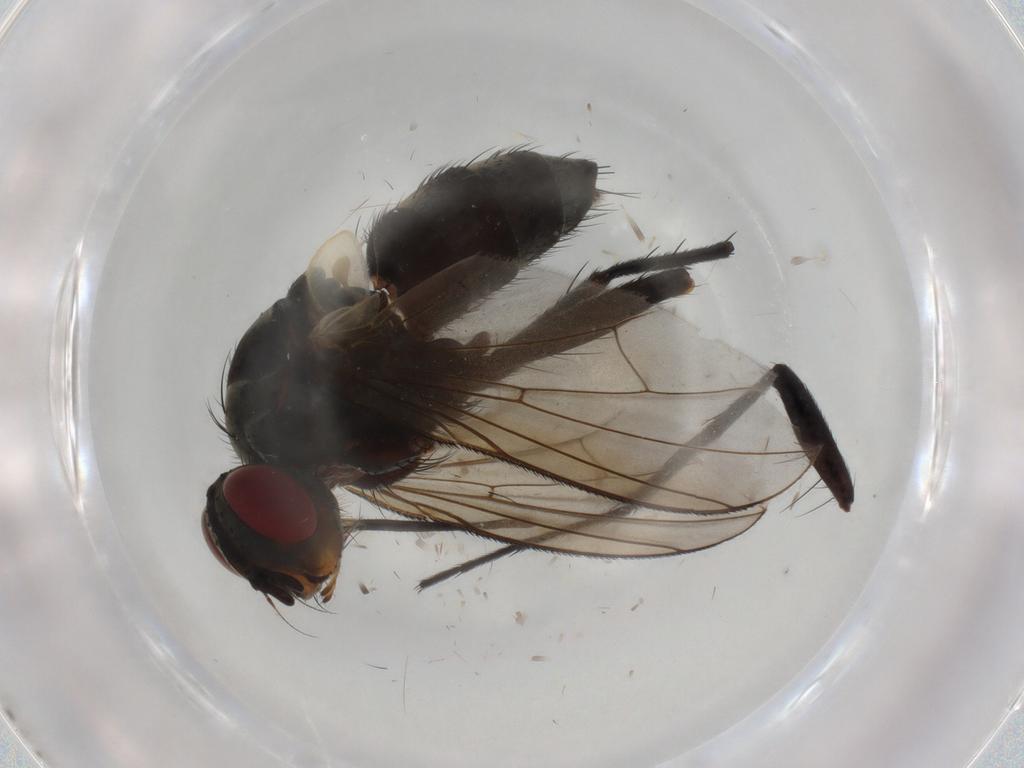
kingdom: Animalia
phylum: Arthropoda
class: Insecta
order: Diptera
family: Tachinidae
